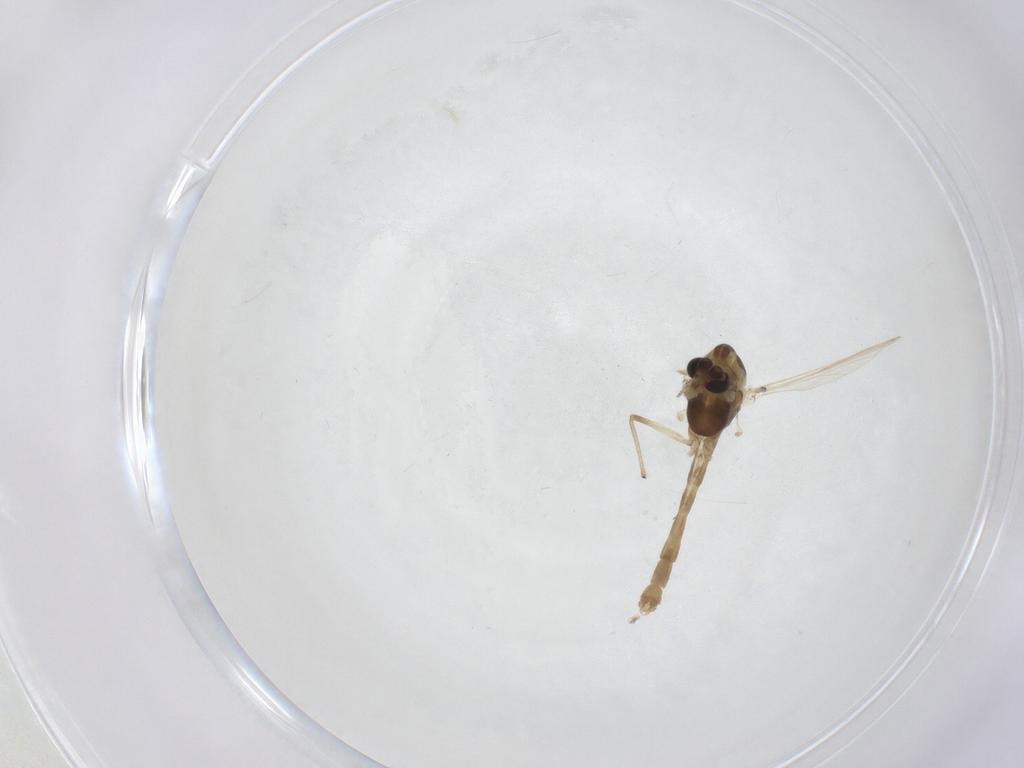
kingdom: Animalia
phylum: Arthropoda
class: Insecta
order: Diptera
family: Chironomidae
